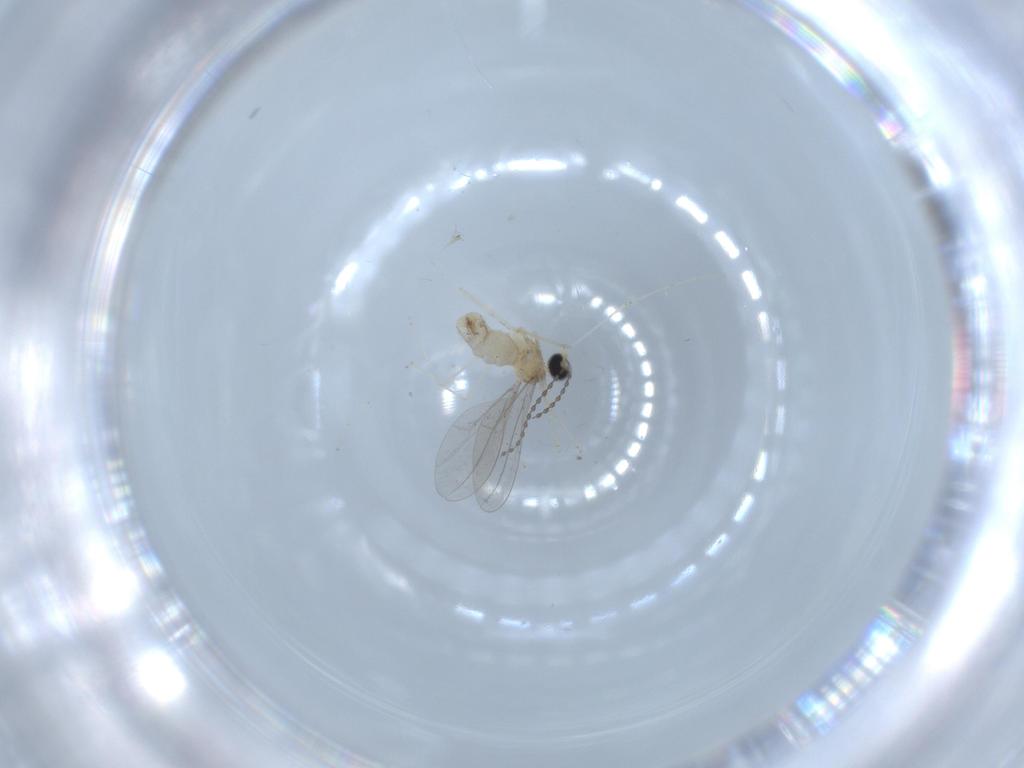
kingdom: Animalia
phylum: Arthropoda
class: Insecta
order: Diptera
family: Cecidomyiidae
